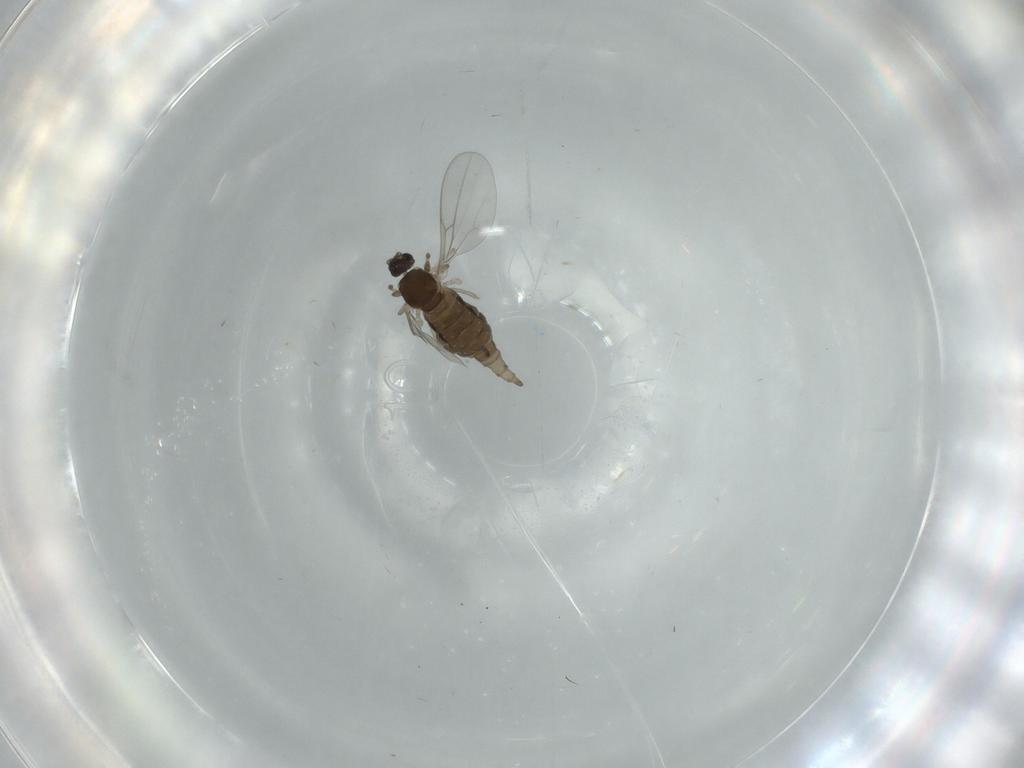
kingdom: Animalia
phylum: Arthropoda
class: Insecta
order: Diptera
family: Cecidomyiidae
